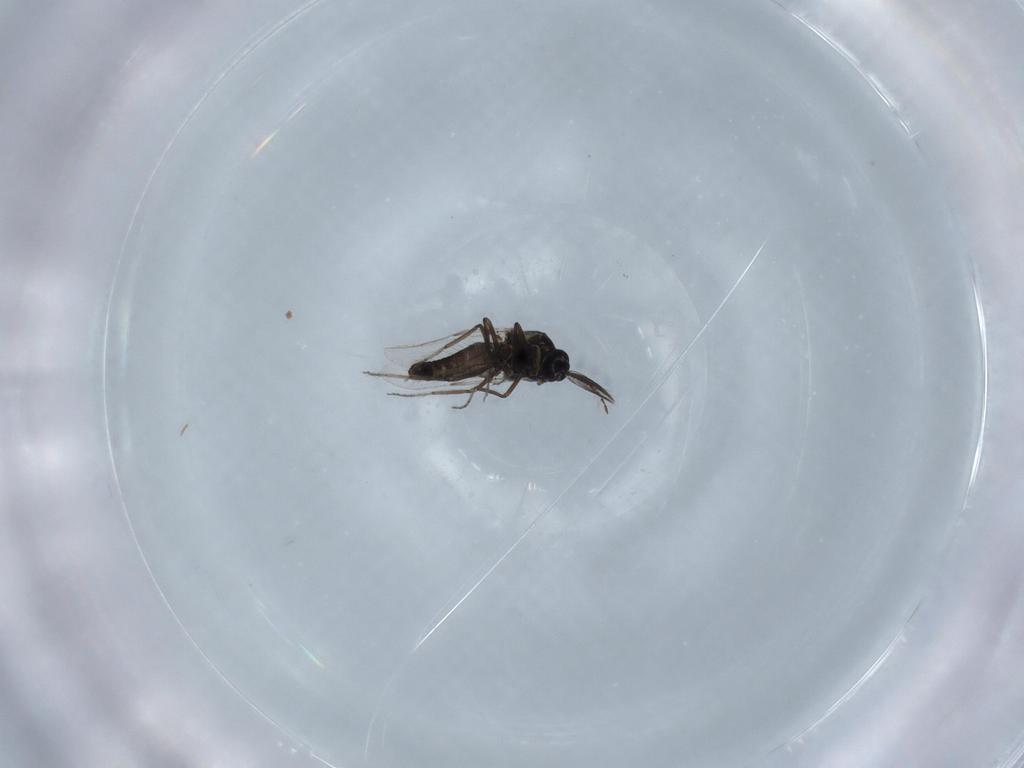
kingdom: Animalia
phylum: Arthropoda
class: Insecta
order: Diptera
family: Ceratopogonidae
